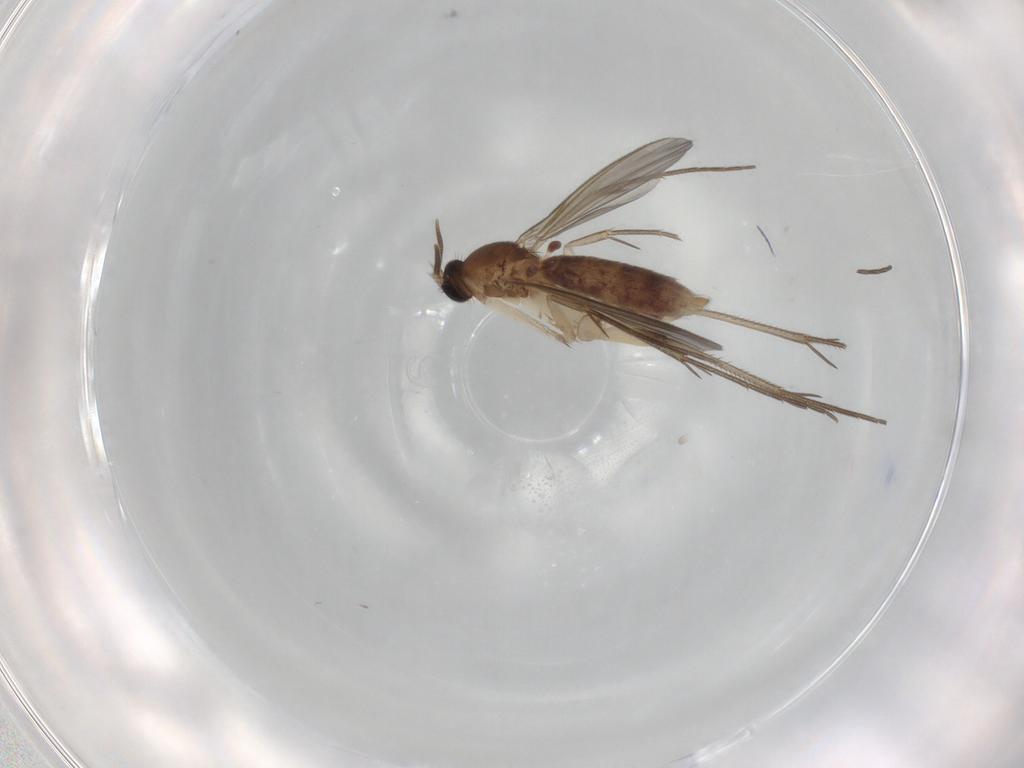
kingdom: Animalia
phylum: Arthropoda
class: Insecta
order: Diptera
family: Mycetophilidae
